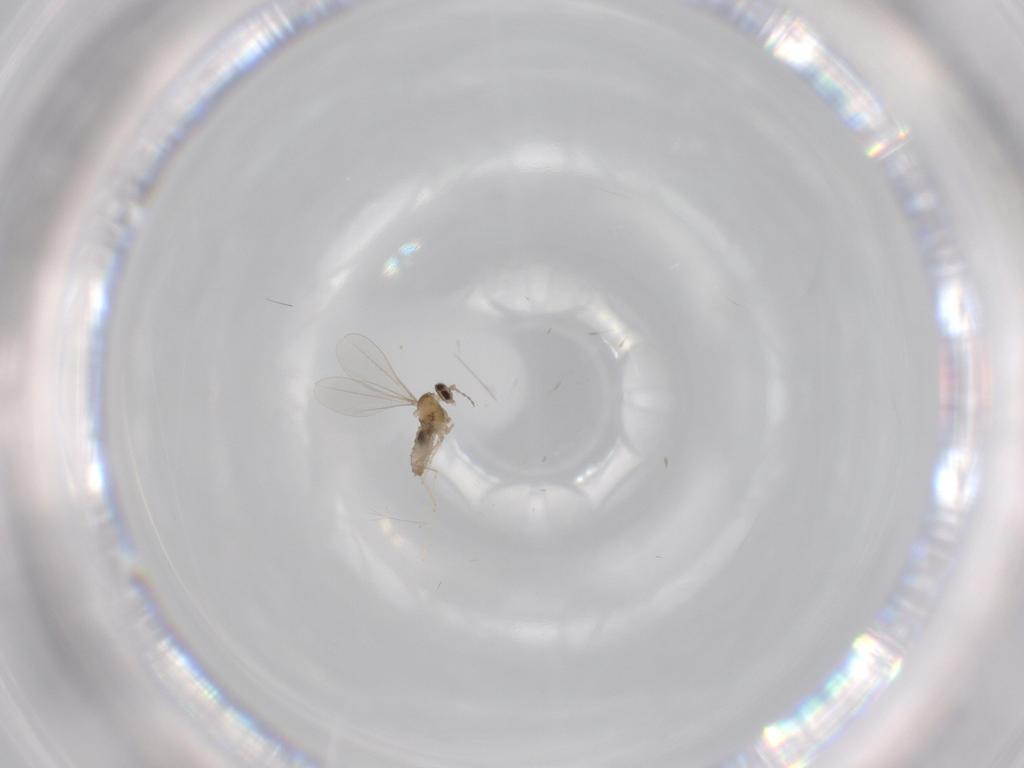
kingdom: Animalia
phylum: Arthropoda
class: Insecta
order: Diptera
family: Cecidomyiidae
